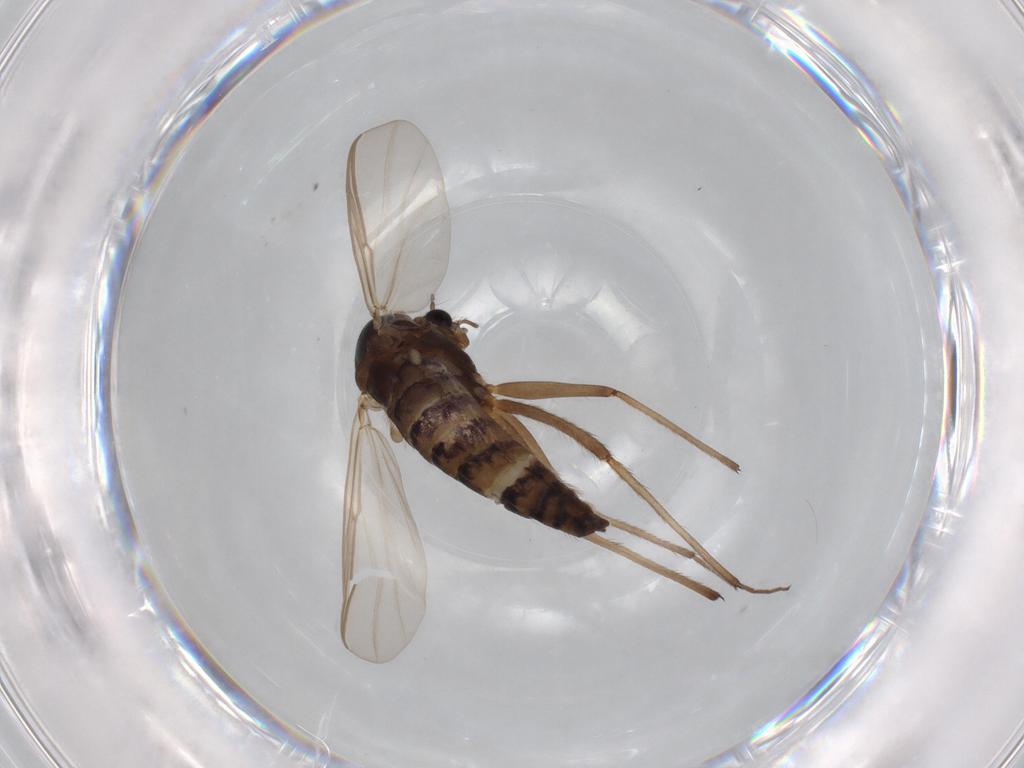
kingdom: Animalia
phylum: Arthropoda
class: Insecta
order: Diptera
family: Chironomidae
